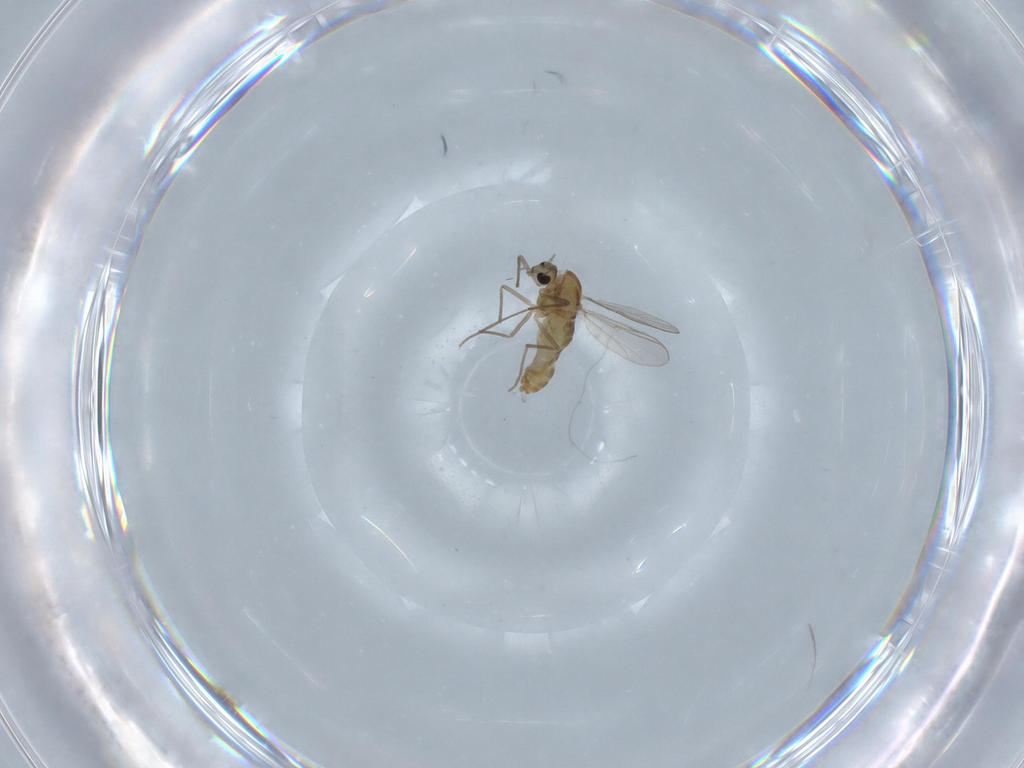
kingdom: Animalia
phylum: Arthropoda
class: Insecta
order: Diptera
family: Chironomidae
